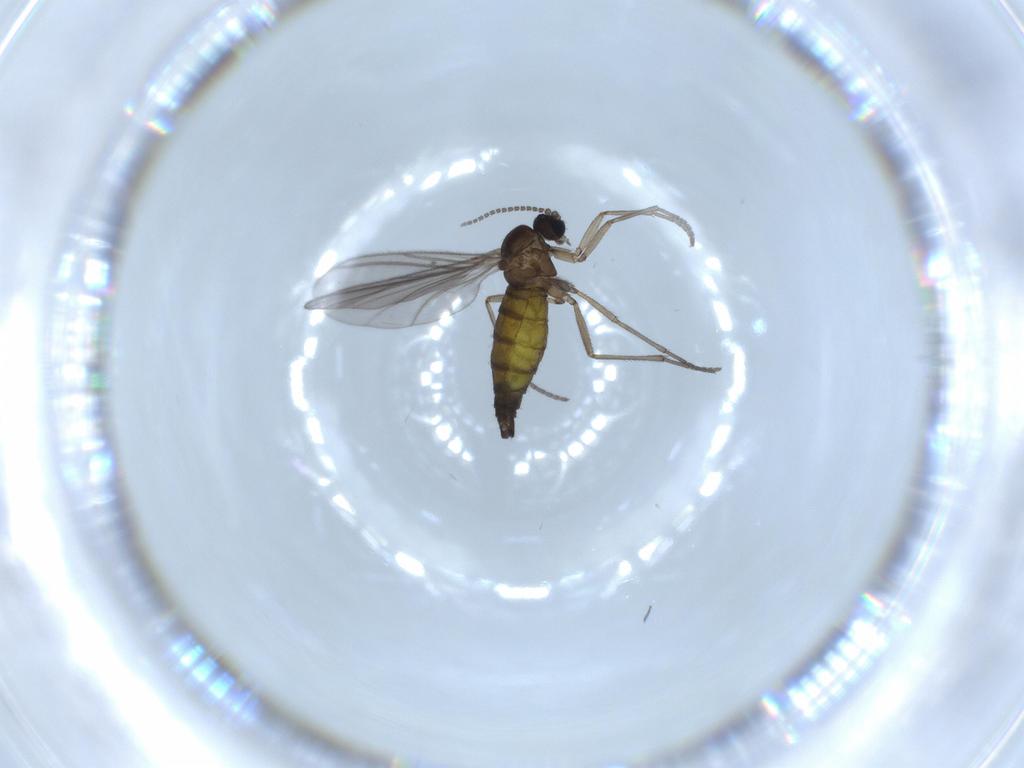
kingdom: Animalia
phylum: Arthropoda
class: Insecta
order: Diptera
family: Sciaridae
